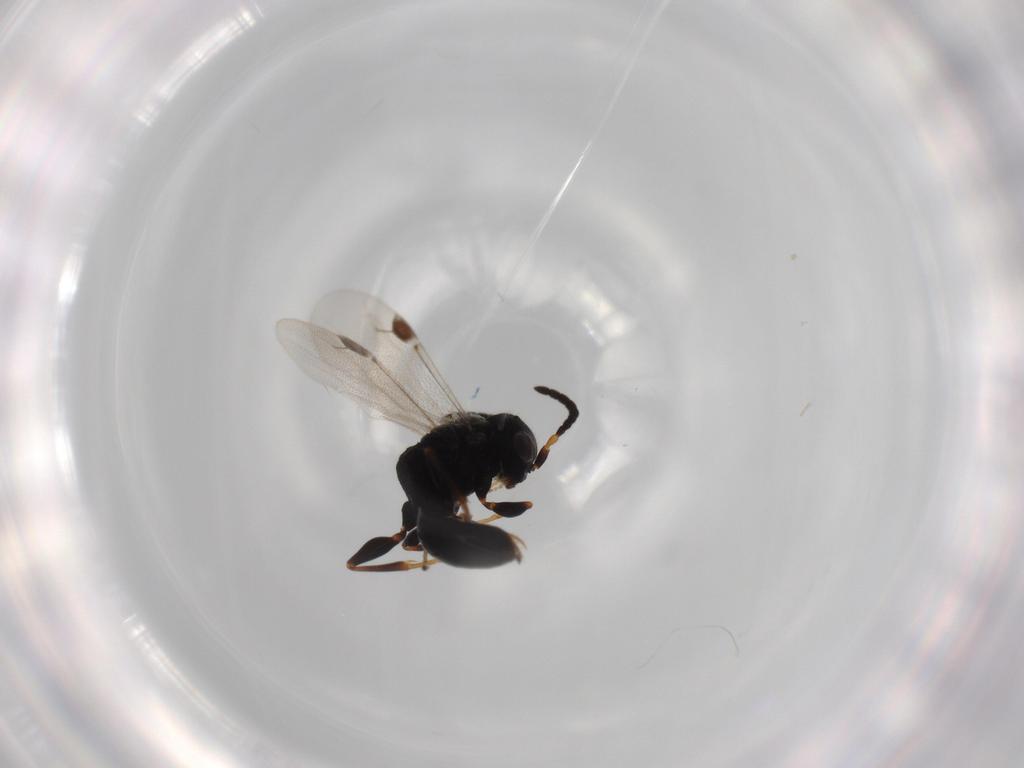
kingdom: Animalia
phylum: Arthropoda
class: Insecta
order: Hymenoptera
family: Dryinidae
